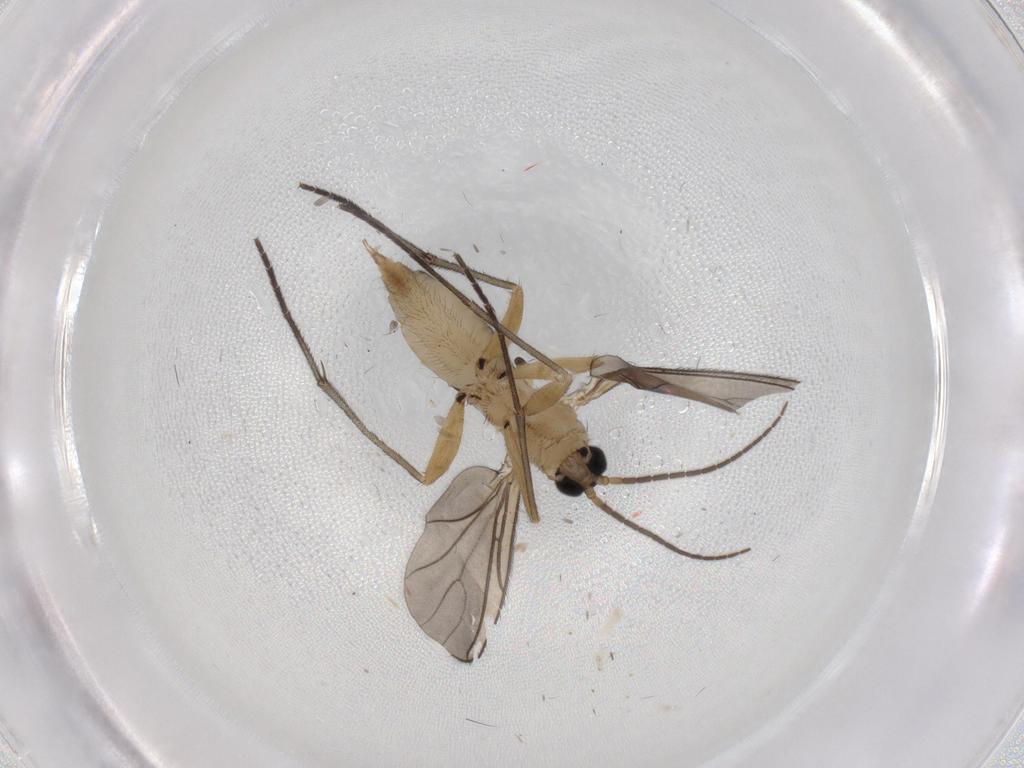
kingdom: Animalia
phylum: Arthropoda
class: Insecta
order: Diptera
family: Sciaridae
